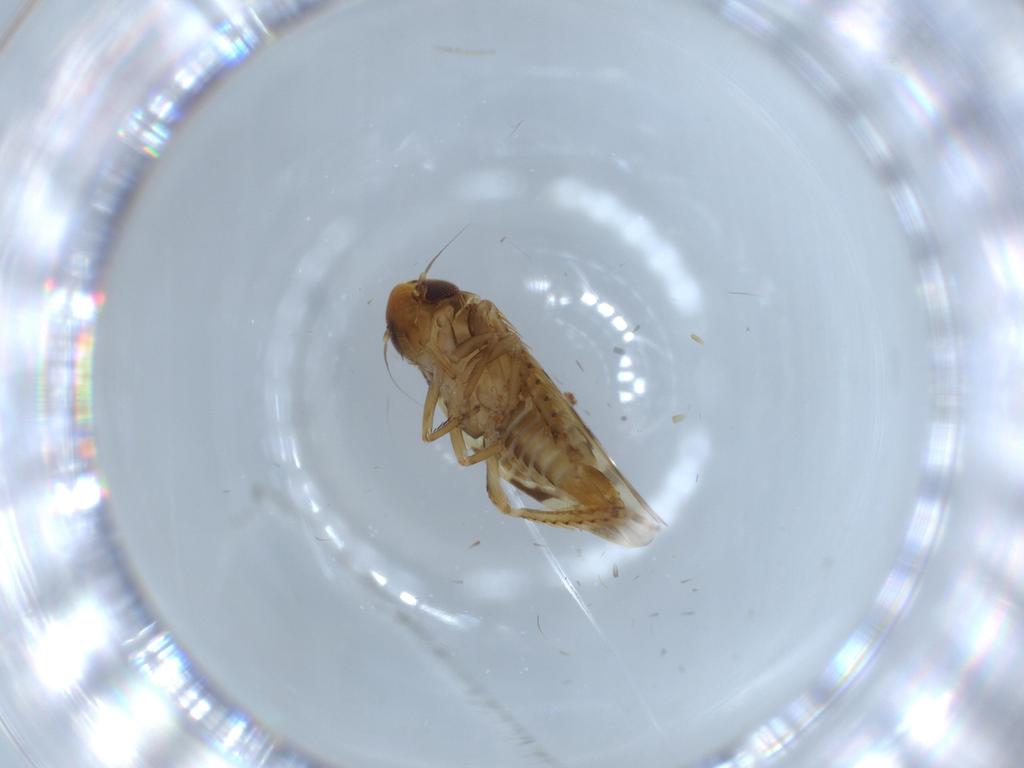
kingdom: Animalia
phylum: Arthropoda
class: Insecta
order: Hemiptera
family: Cicadellidae
